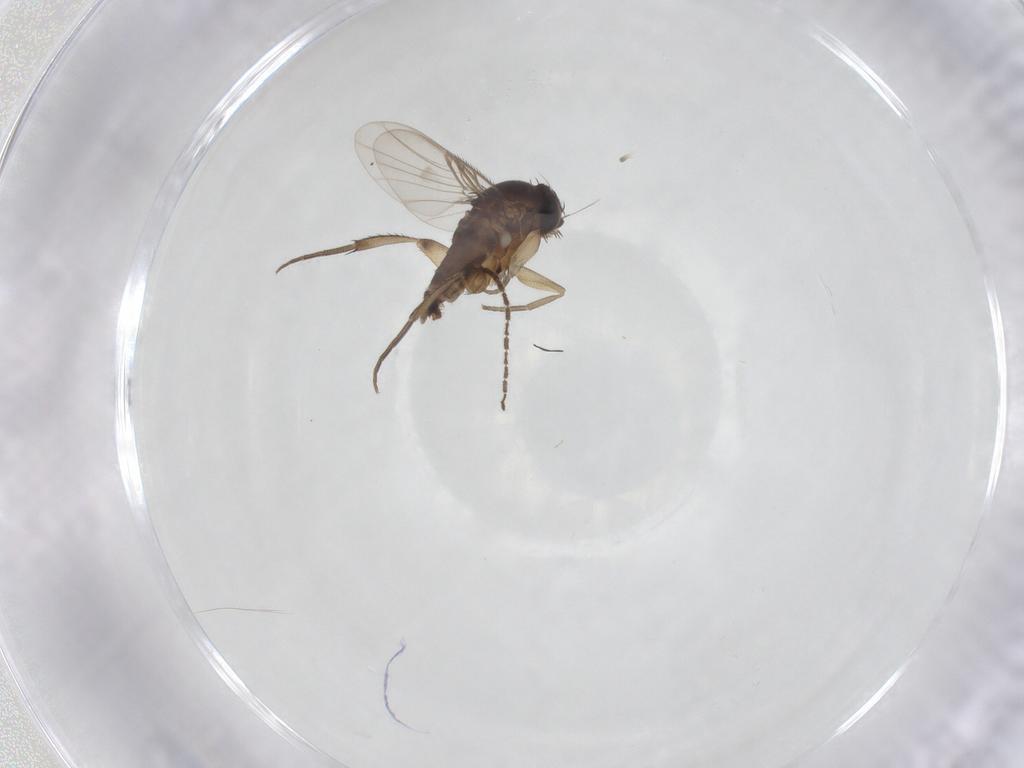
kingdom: Animalia
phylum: Arthropoda
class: Insecta
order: Diptera
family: Phoridae
